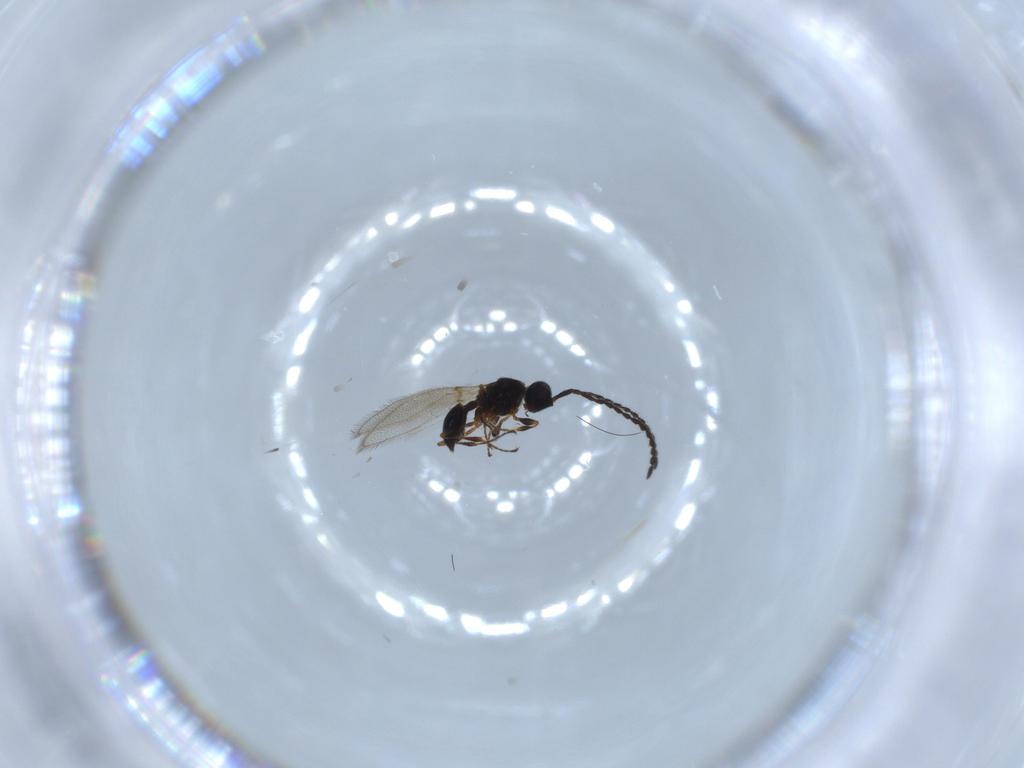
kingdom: Animalia
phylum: Arthropoda
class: Insecta
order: Hymenoptera
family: Diapriidae
